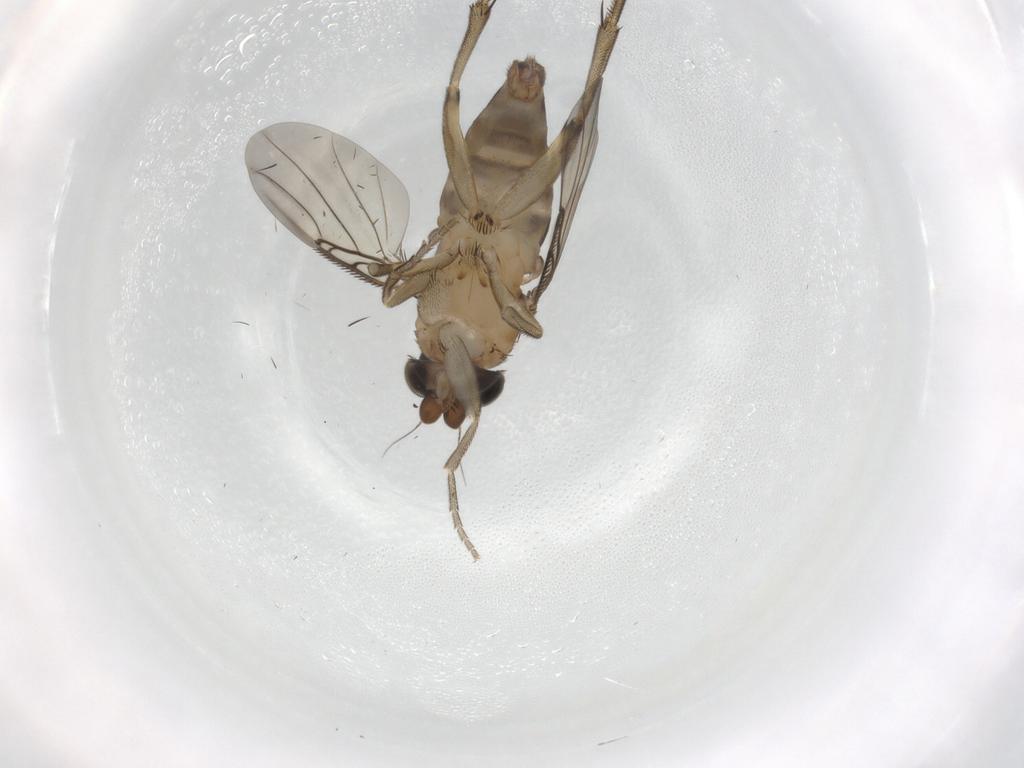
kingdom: Animalia
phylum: Arthropoda
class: Insecta
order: Diptera
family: Phoridae
